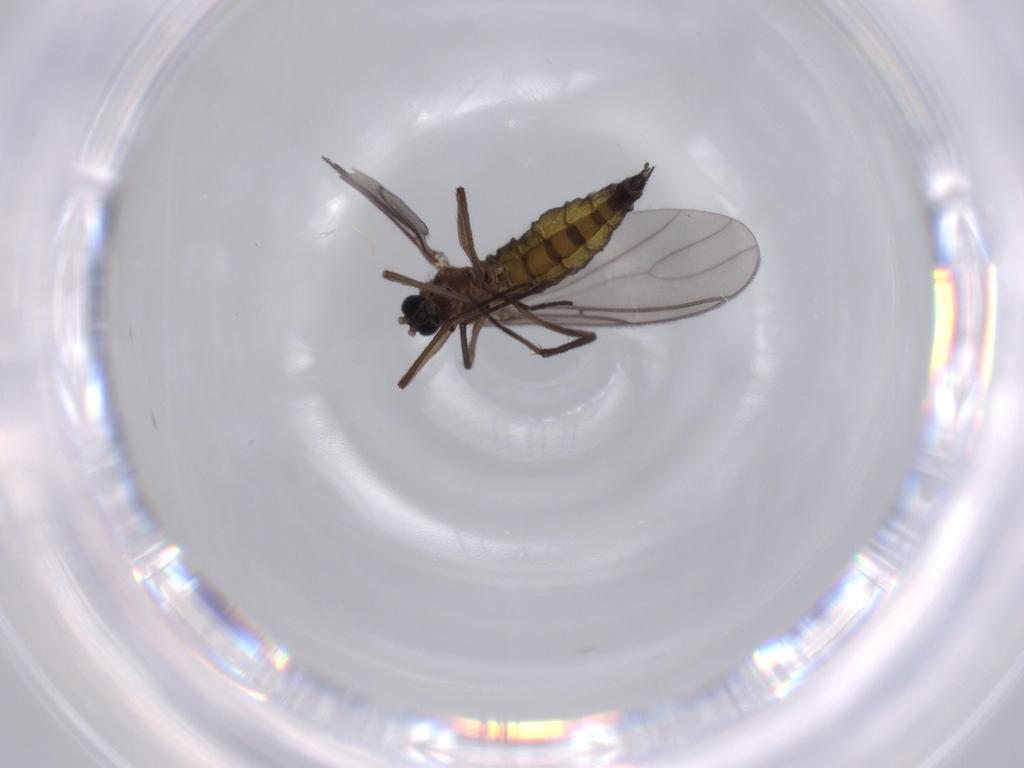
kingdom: Animalia
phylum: Arthropoda
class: Insecta
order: Diptera
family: Sciaridae
